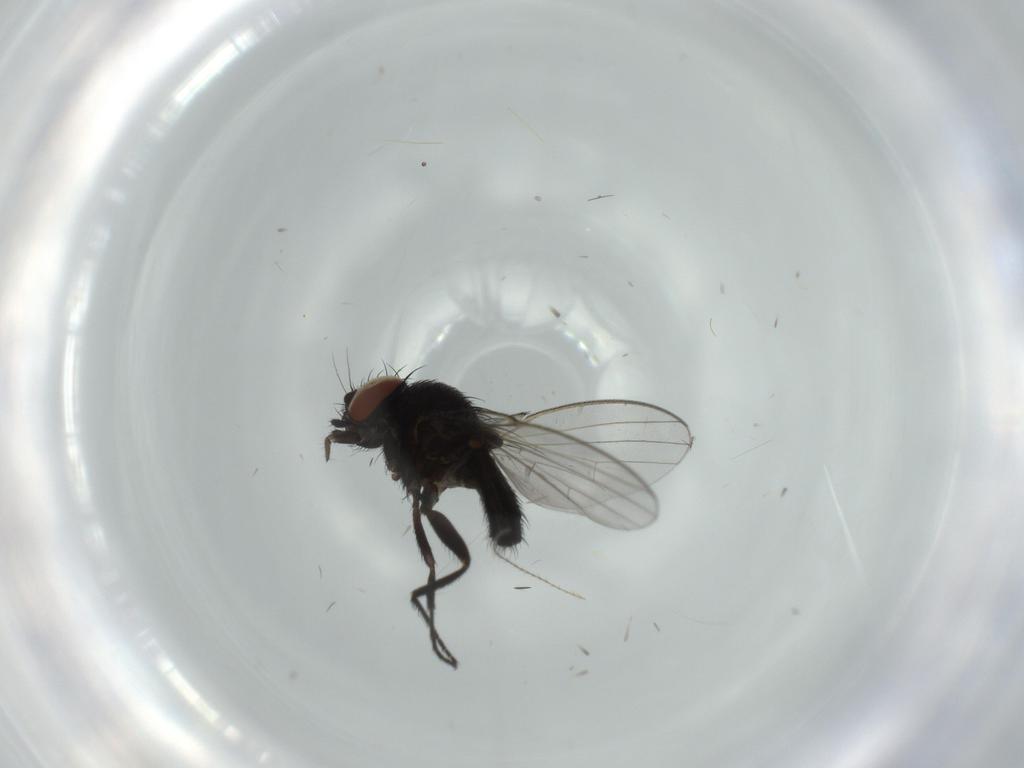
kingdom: Animalia
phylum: Arthropoda
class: Insecta
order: Diptera
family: Milichiidae
